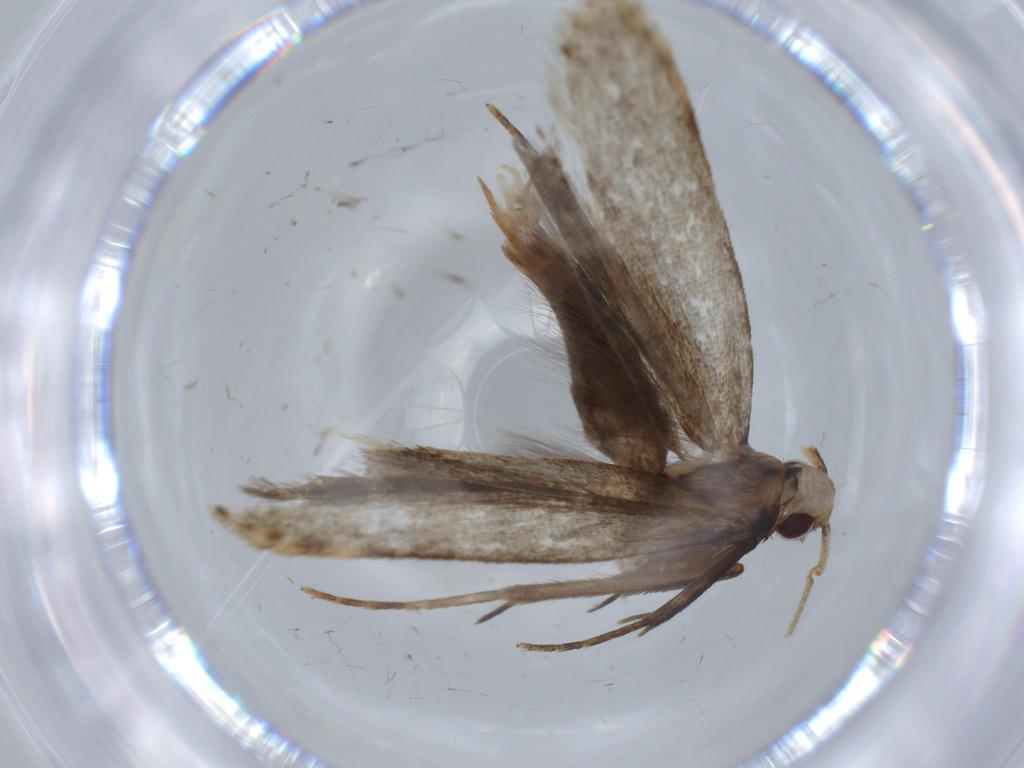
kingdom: Animalia
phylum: Arthropoda
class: Insecta
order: Lepidoptera
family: Gelechiidae
